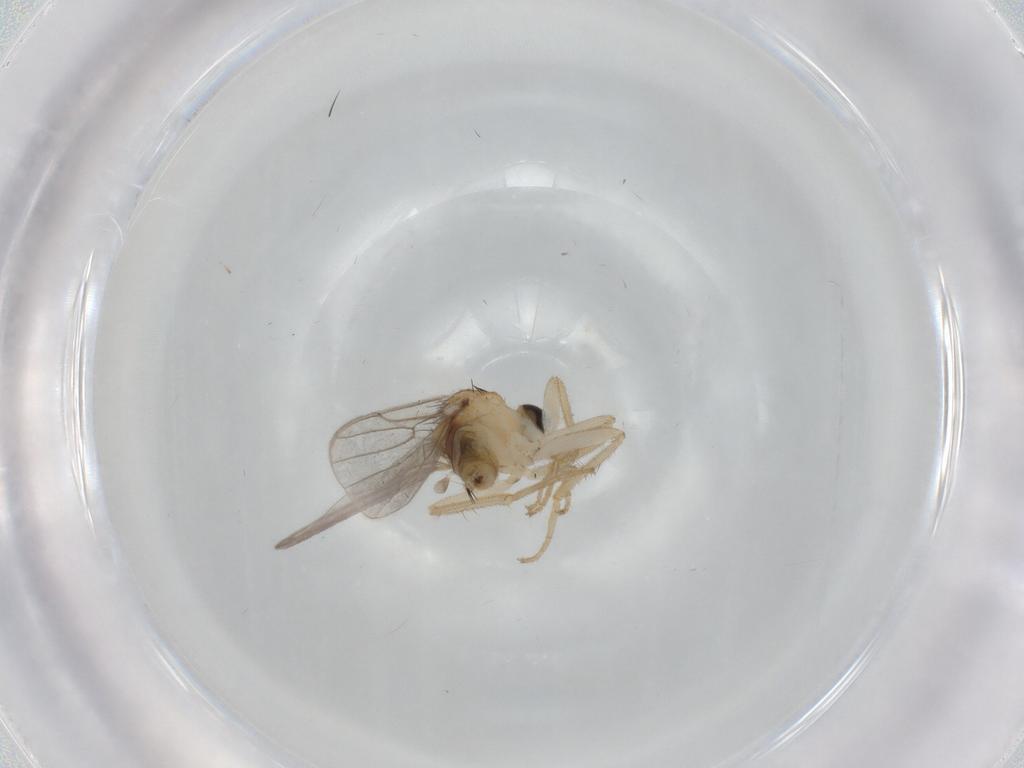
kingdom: Animalia
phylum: Arthropoda
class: Insecta
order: Diptera
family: Hybotidae
